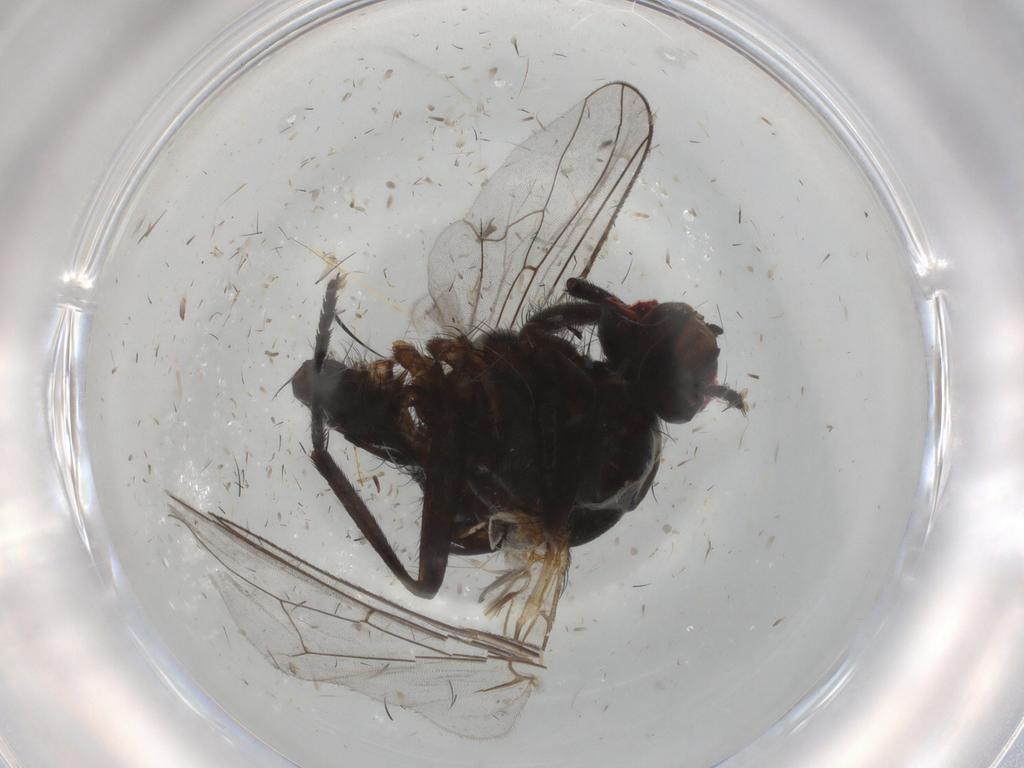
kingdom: Animalia
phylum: Arthropoda
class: Insecta
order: Diptera
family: Anthomyiidae
